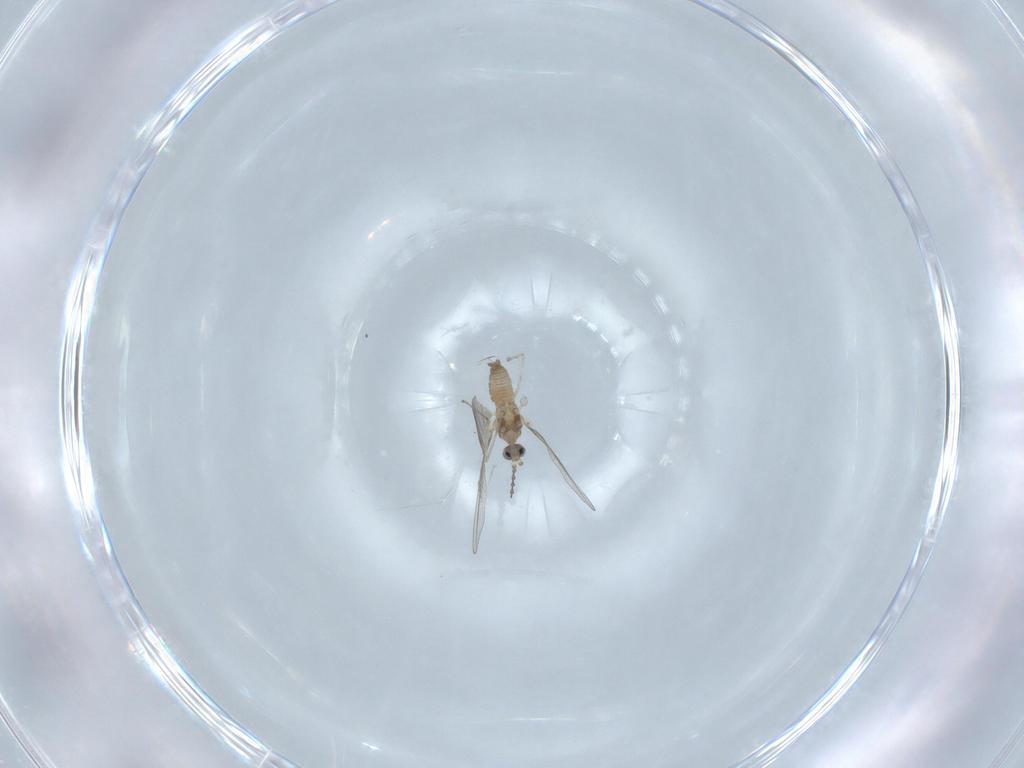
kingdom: Animalia
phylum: Arthropoda
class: Insecta
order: Diptera
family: Cecidomyiidae
